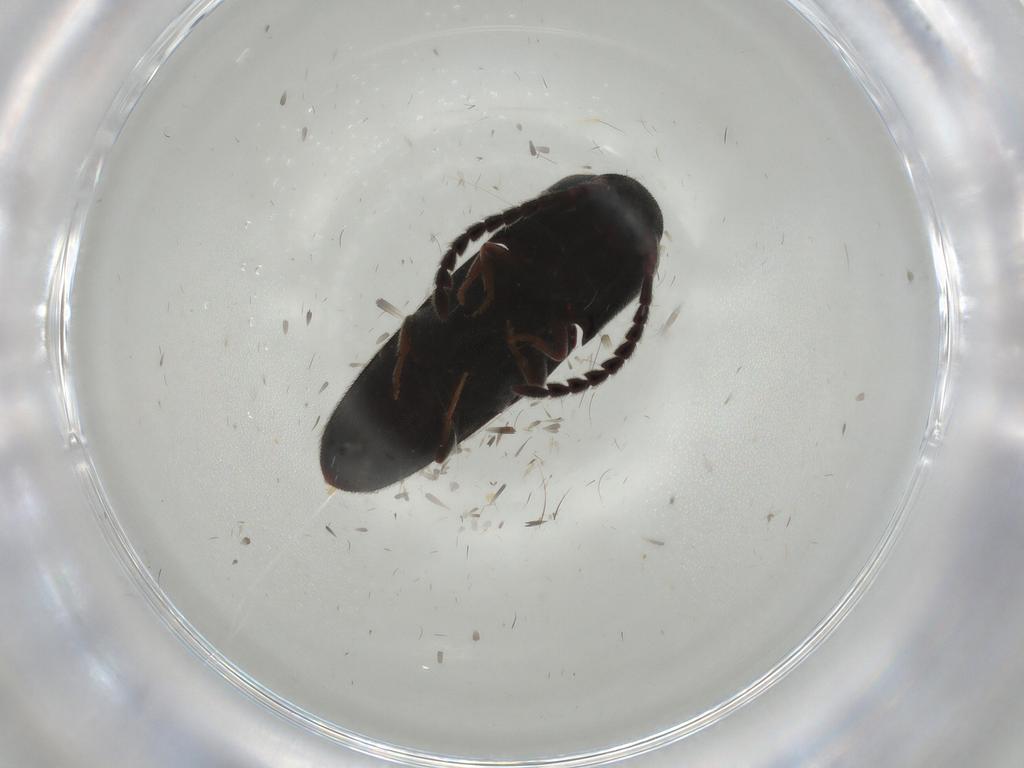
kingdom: Animalia
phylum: Arthropoda
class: Insecta
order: Coleoptera
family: Eucnemidae
